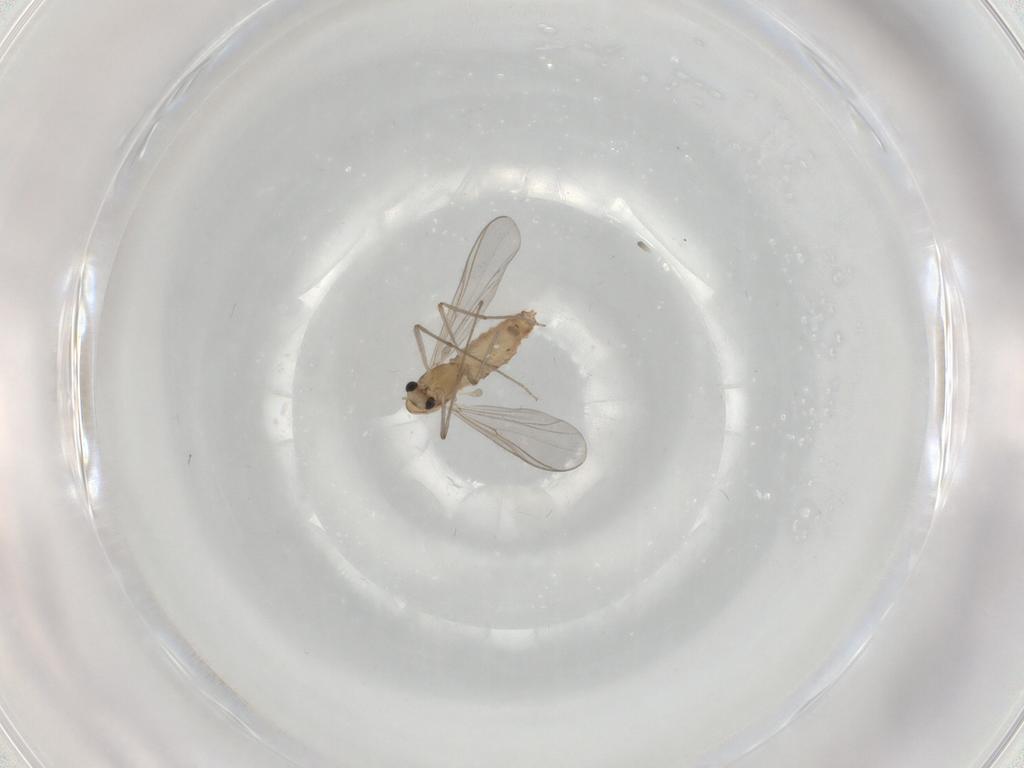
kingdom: Animalia
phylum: Arthropoda
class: Insecta
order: Diptera
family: Chironomidae
